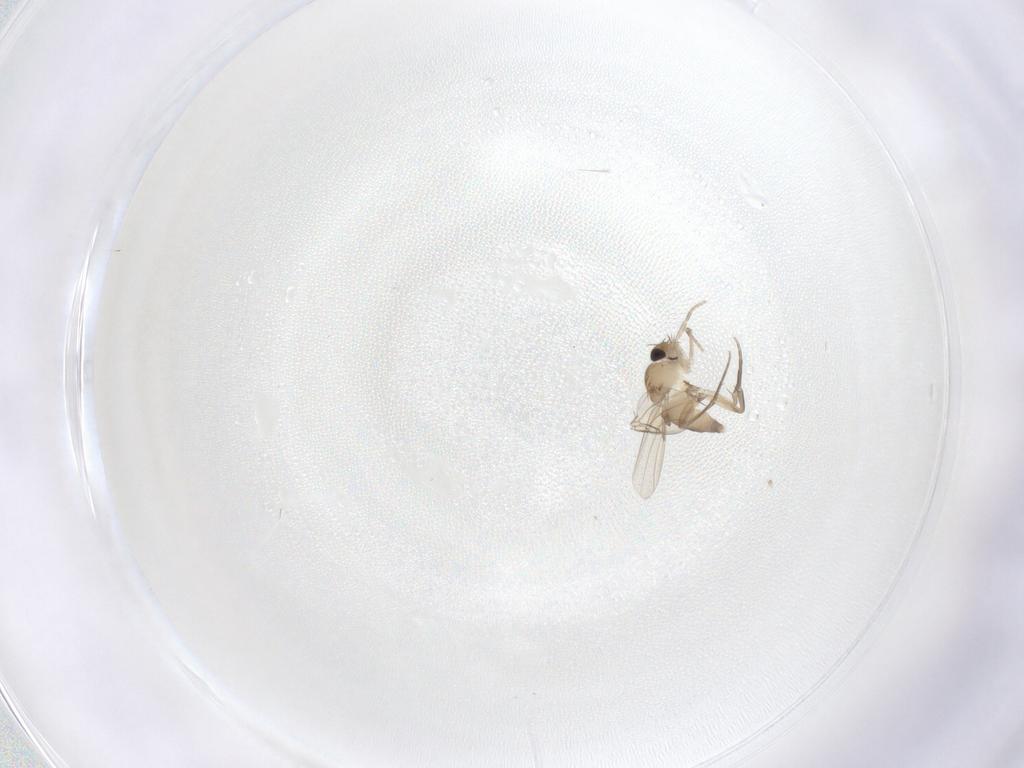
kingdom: Animalia
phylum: Arthropoda
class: Insecta
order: Diptera
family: Phoridae
